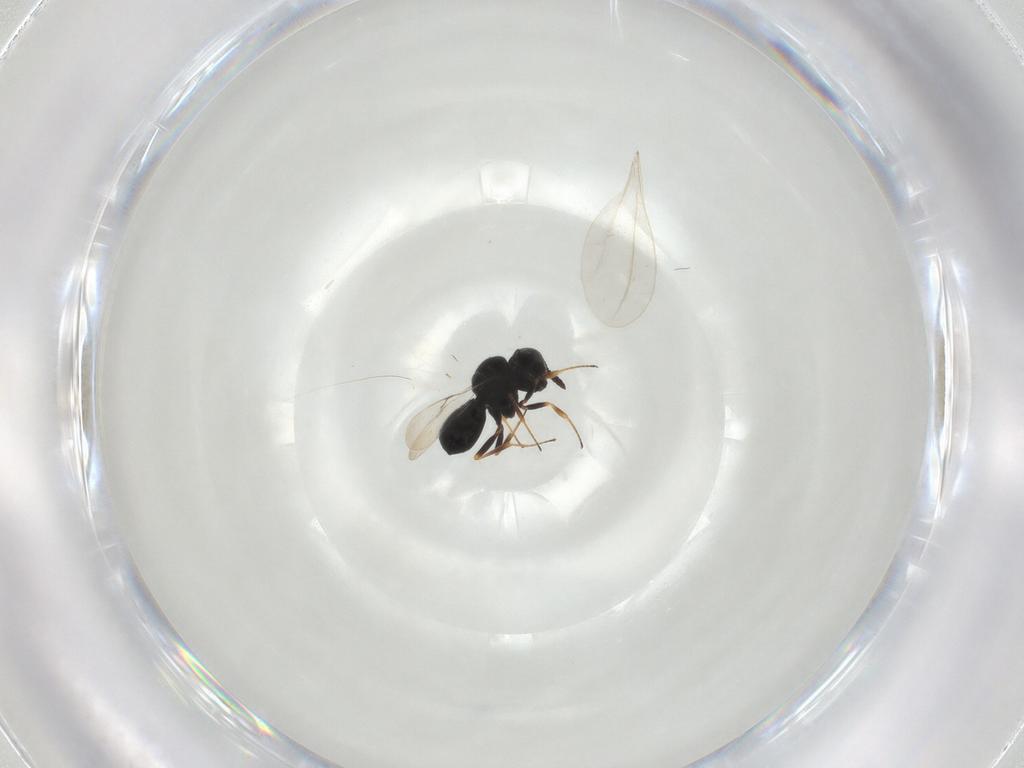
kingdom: Animalia
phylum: Arthropoda
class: Insecta
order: Hymenoptera
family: Scelionidae
